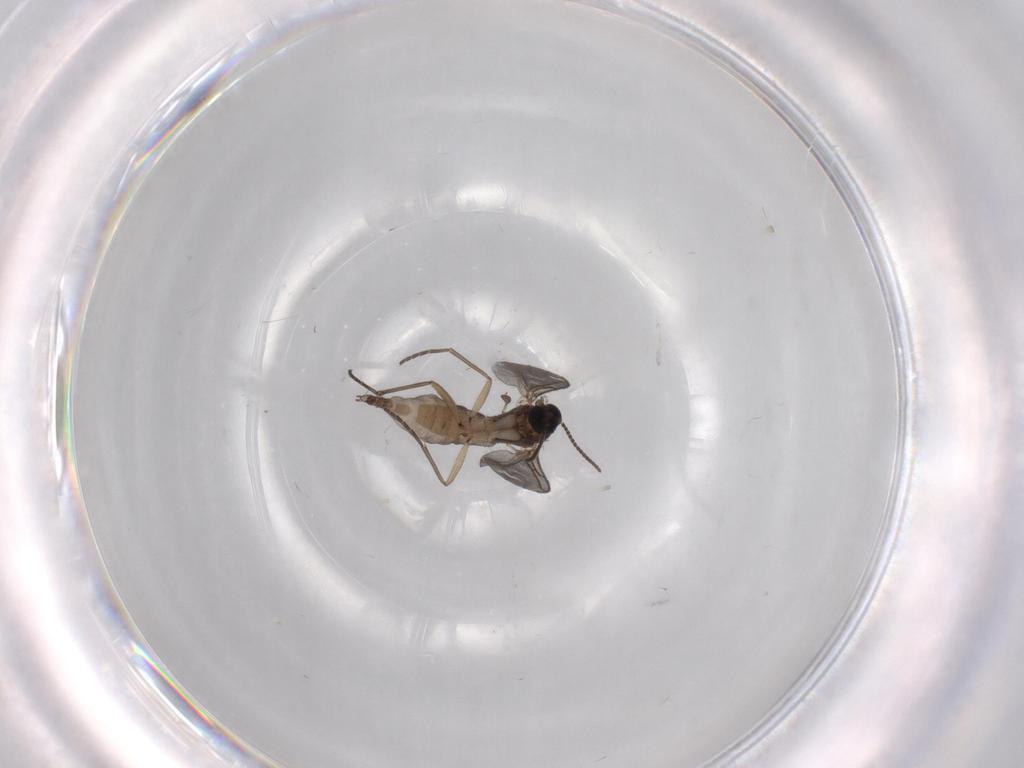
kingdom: Animalia
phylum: Arthropoda
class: Insecta
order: Diptera
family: Sciaridae
